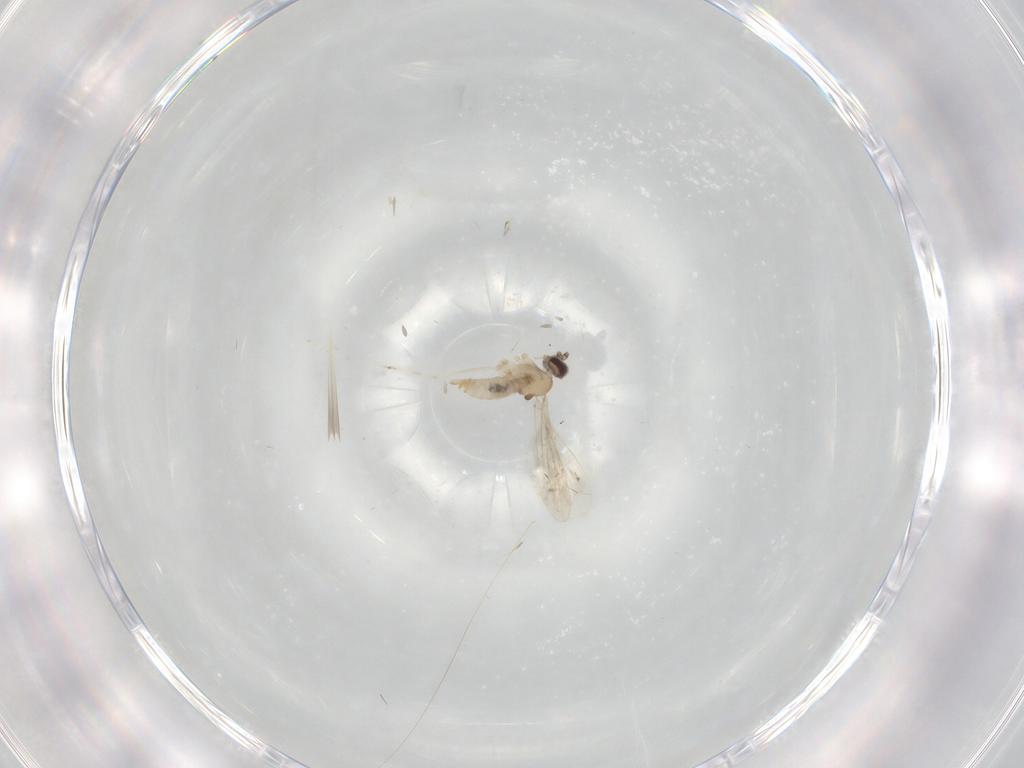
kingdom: Animalia
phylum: Arthropoda
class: Insecta
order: Diptera
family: Cecidomyiidae
